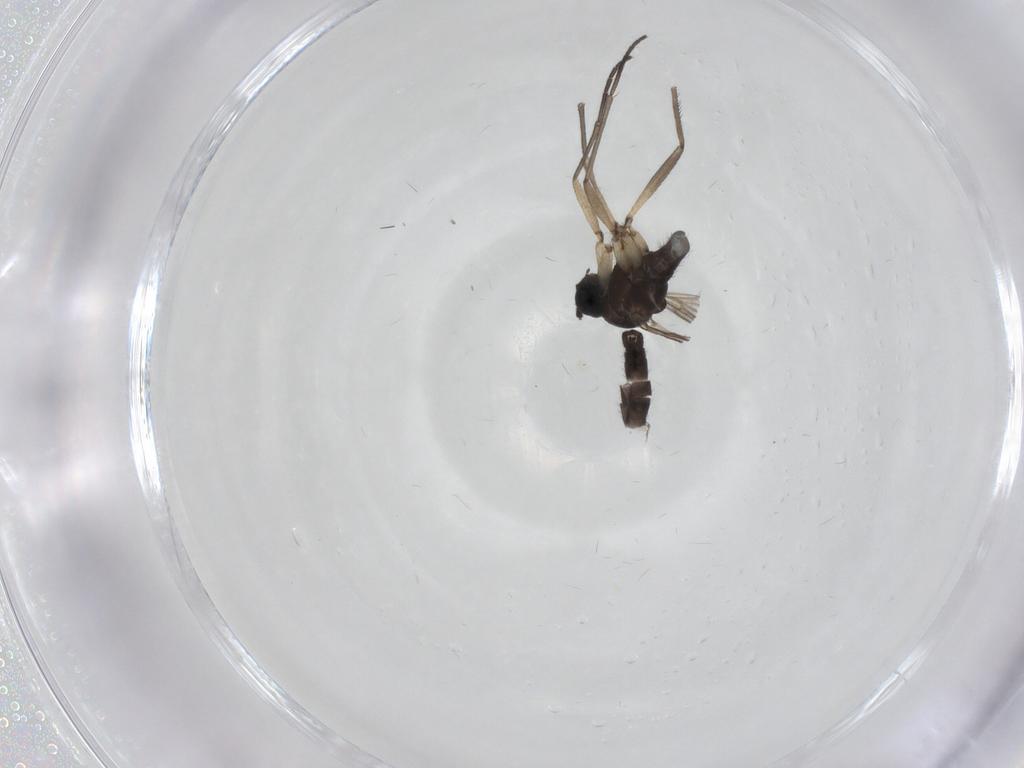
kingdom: Animalia
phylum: Arthropoda
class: Insecta
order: Diptera
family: Sciaridae
